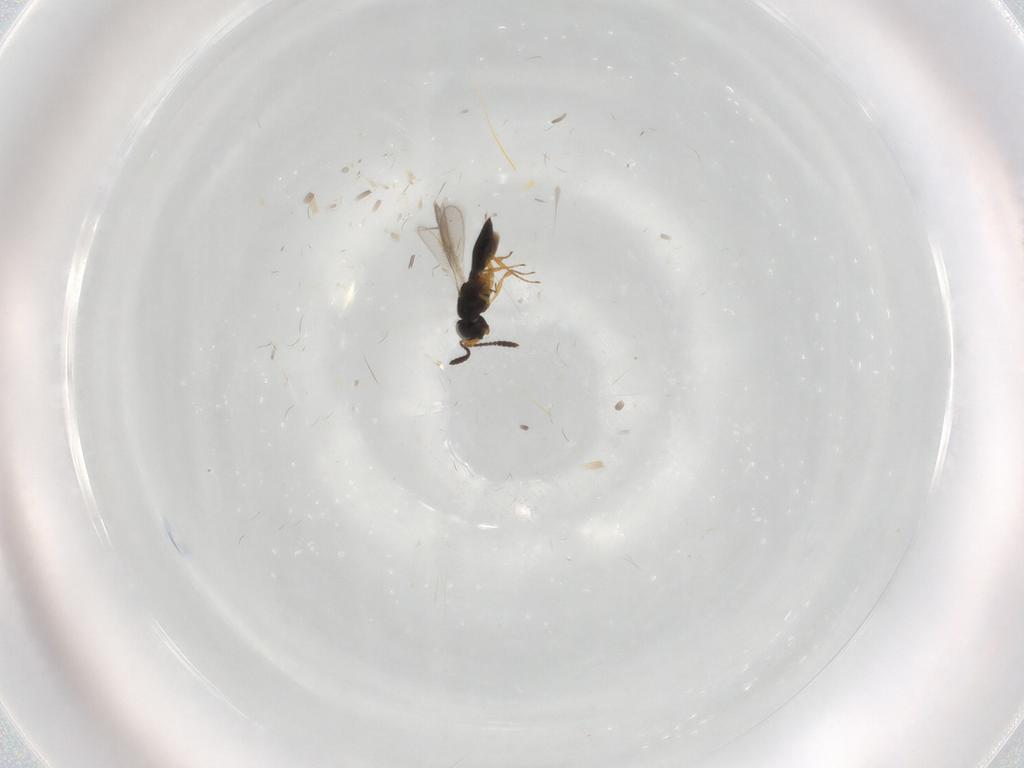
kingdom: Animalia
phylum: Arthropoda
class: Insecta
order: Hymenoptera
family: Scelionidae
